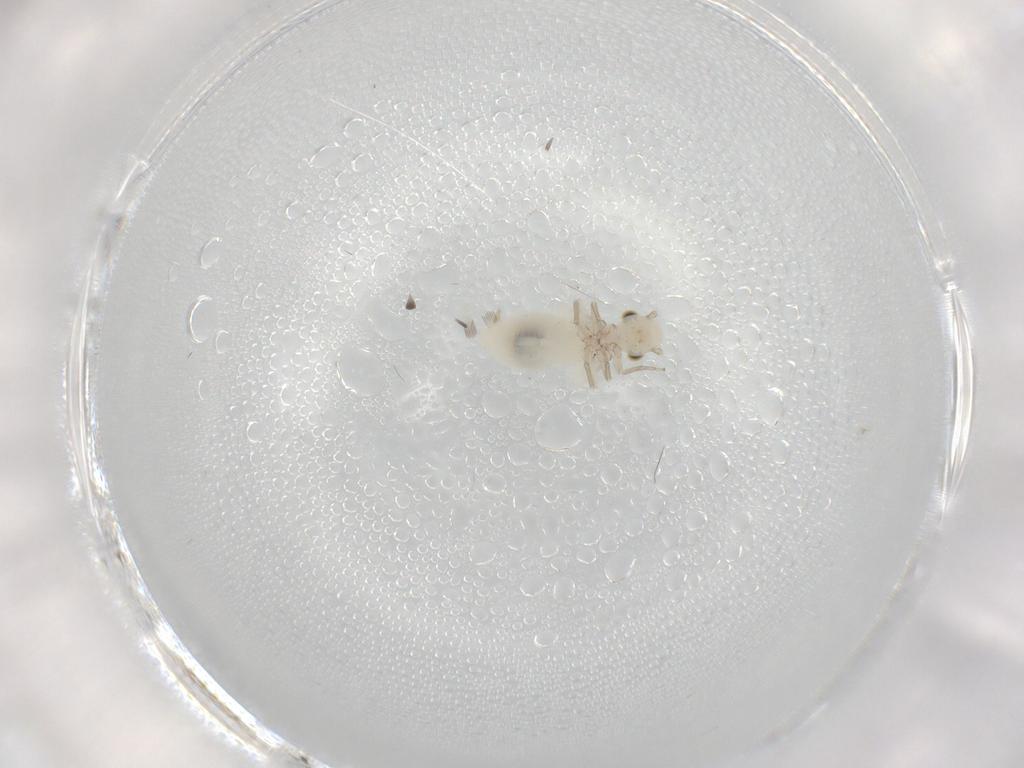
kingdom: Animalia
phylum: Arthropoda
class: Insecta
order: Psocodea
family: Caeciliusidae
